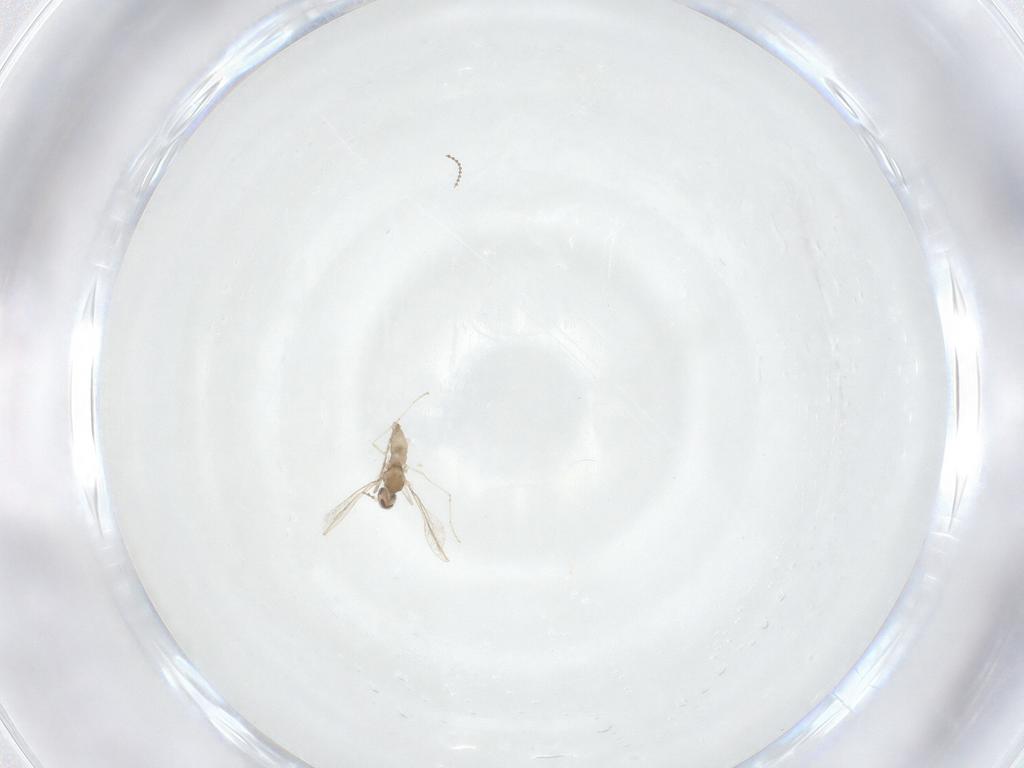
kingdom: Animalia
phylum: Arthropoda
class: Insecta
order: Diptera
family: Cecidomyiidae
